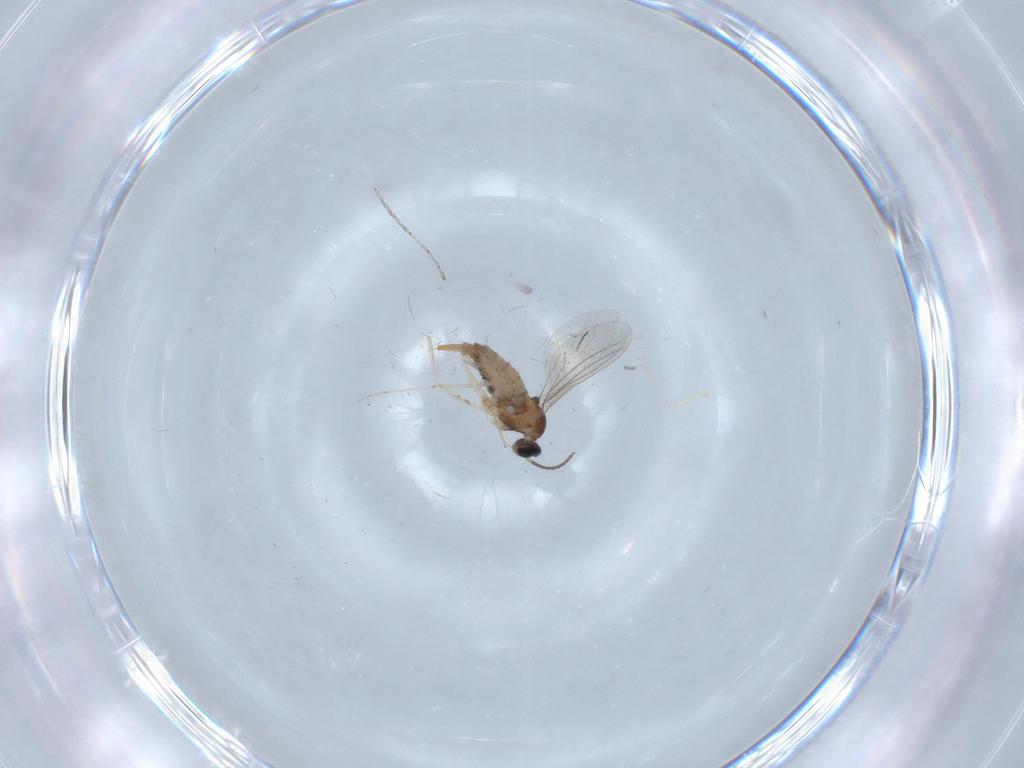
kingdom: Animalia
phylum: Arthropoda
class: Insecta
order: Diptera
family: Cecidomyiidae
